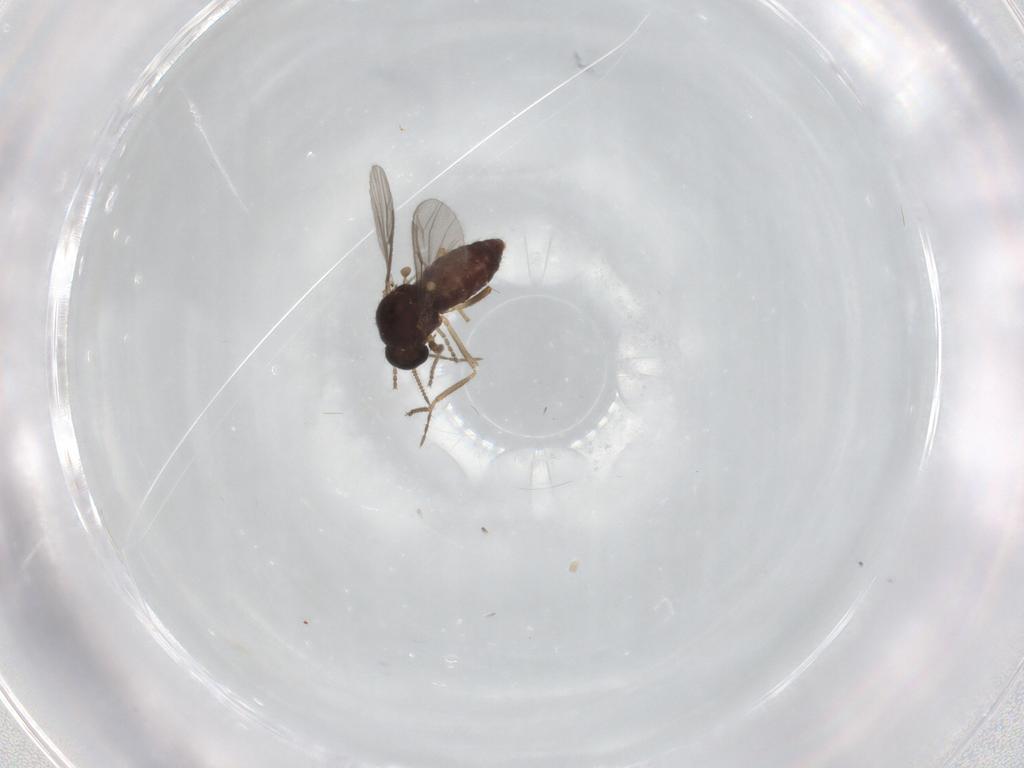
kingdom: Animalia
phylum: Arthropoda
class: Insecta
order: Diptera
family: Ceratopogonidae
